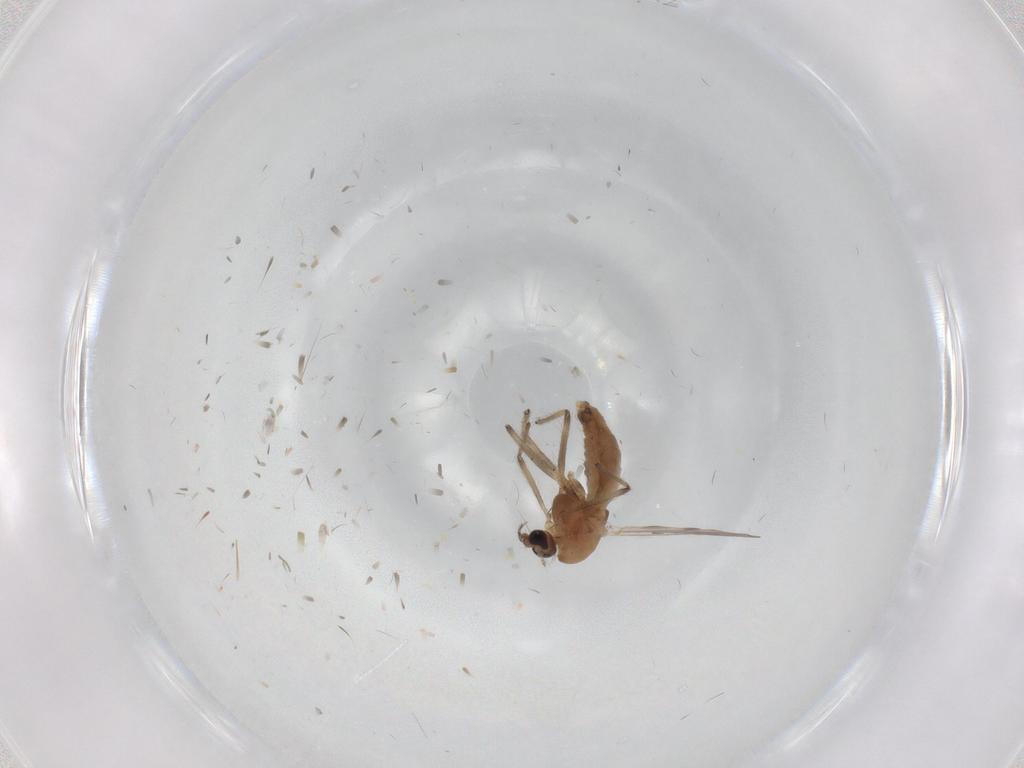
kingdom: Animalia
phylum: Arthropoda
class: Insecta
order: Diptera
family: Chironomidae
